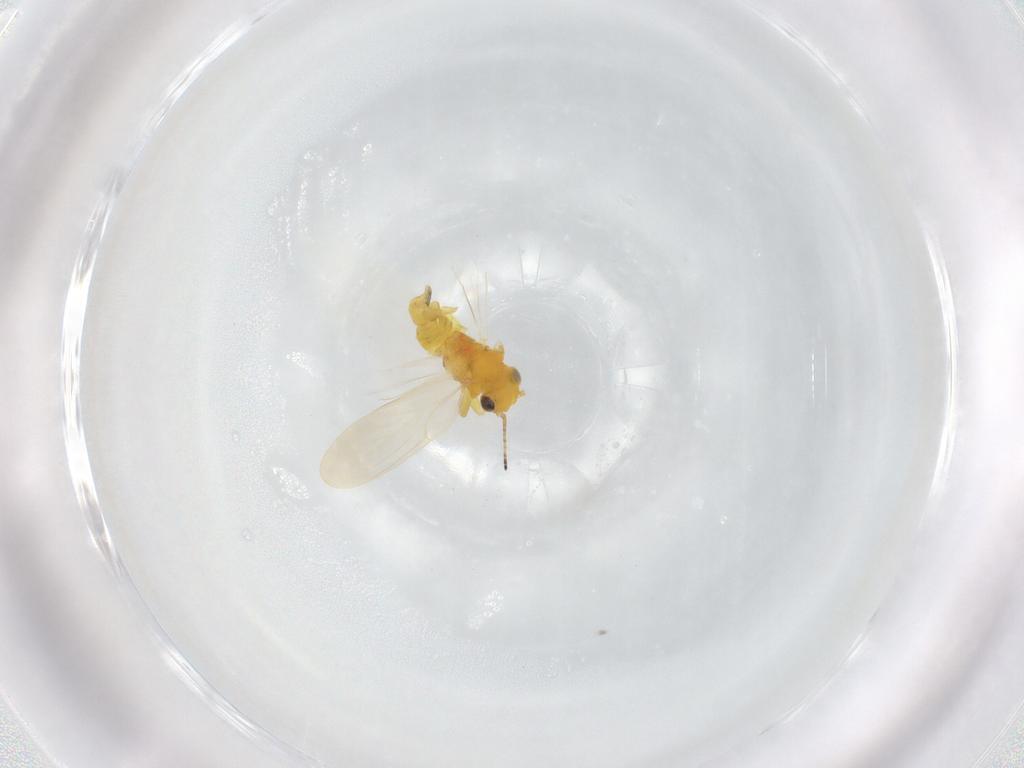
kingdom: Animalia
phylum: Arthropoda
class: Insecta
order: Hemiptera
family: Aphalaridae
